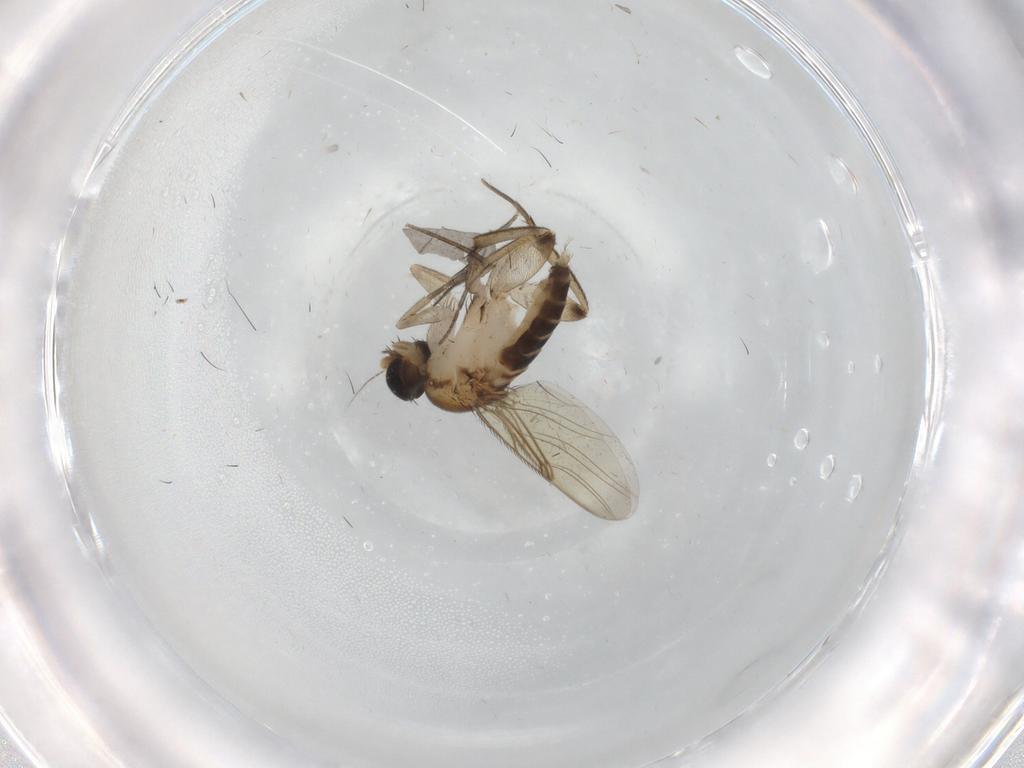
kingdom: Animalia
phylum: Arthropoda
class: Insecta
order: Diptera
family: Phoridae
